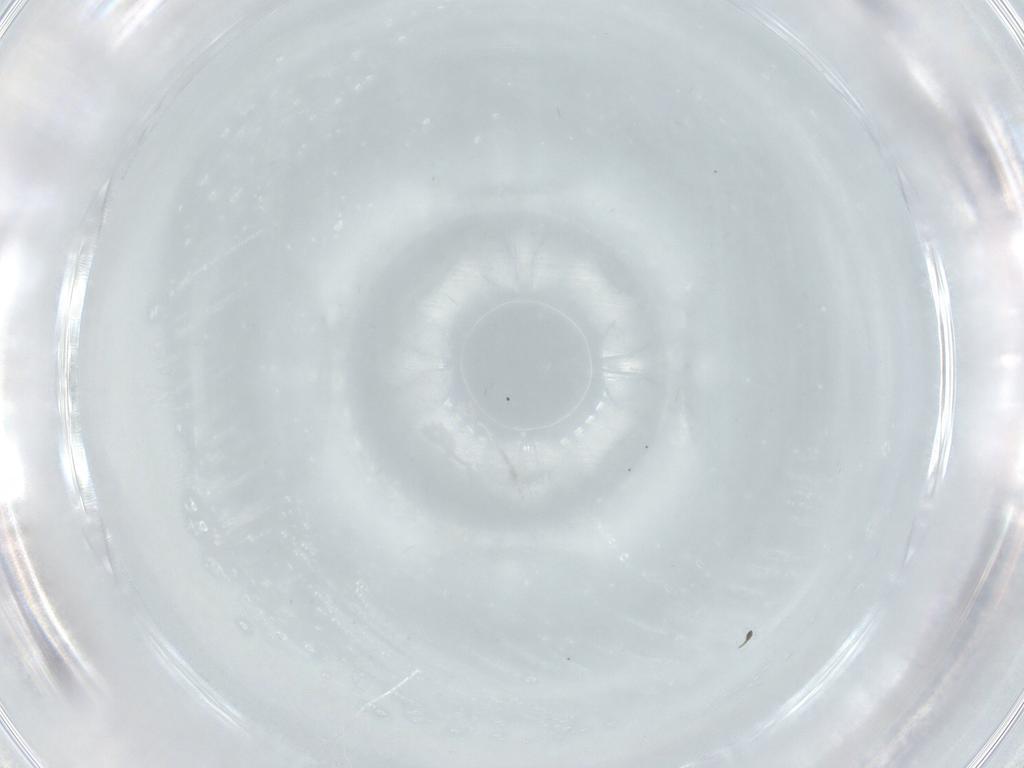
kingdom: Animalia
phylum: Arthropoda
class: Insecta
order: Diptera
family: Cecidomyiidae
